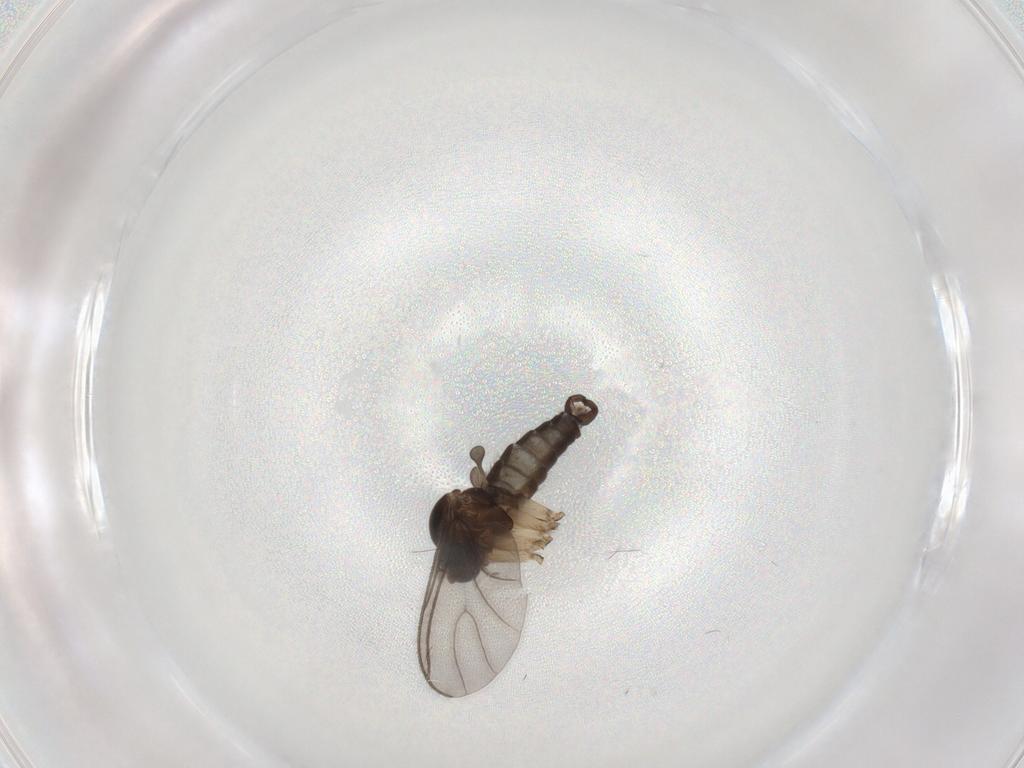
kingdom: Animalia
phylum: Arthropoda
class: Insecta
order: Diptera
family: Sciaridae
